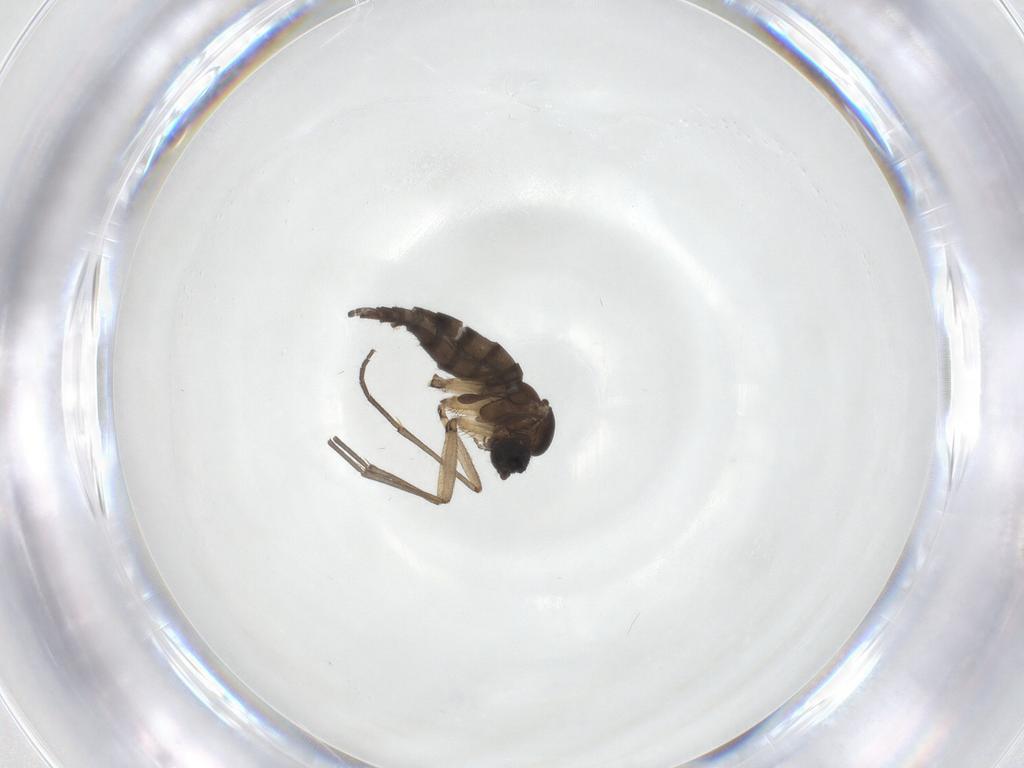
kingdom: Animalia
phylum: Arthropoda
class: Insecta
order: Diptera
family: Sciaridae
